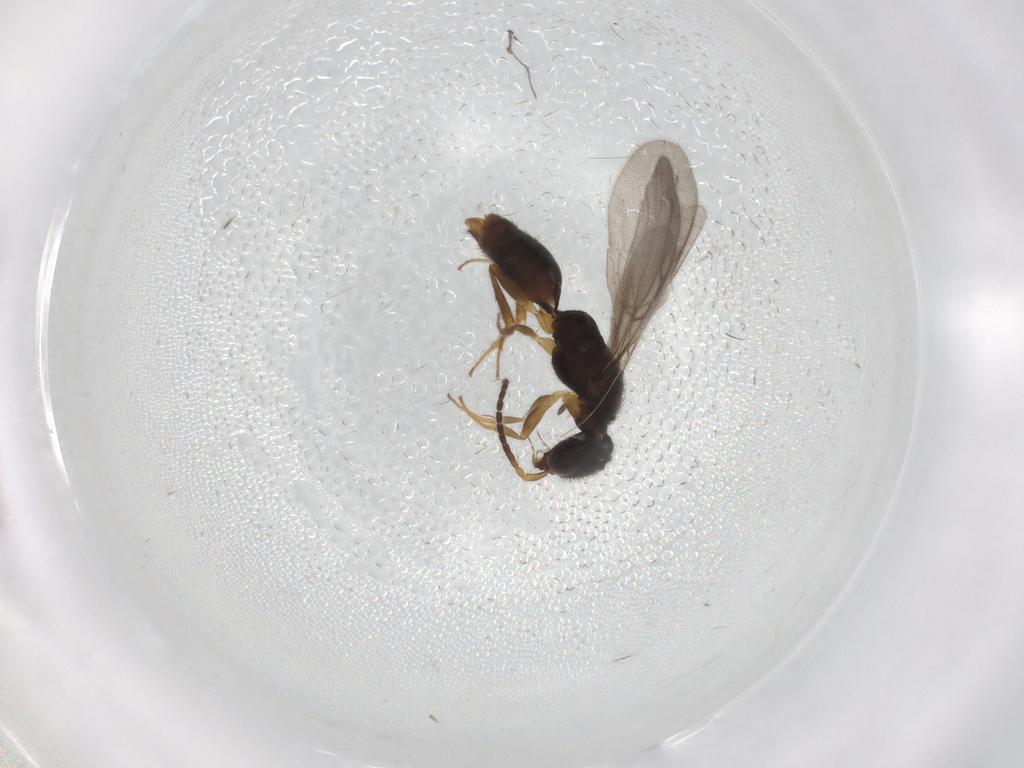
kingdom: Animalia
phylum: Arthropoda
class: Insecta
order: Hymenoptera
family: Bethylidae
